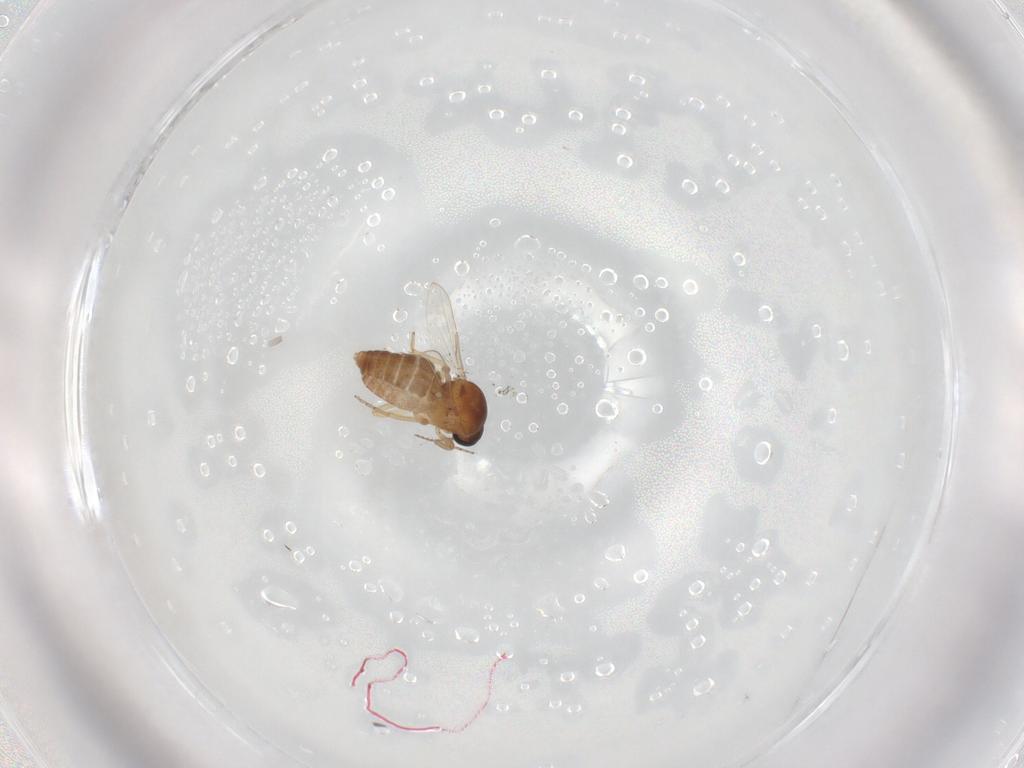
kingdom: Animalia
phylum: Arthropoda
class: Insecta
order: Diptera
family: Ceratopogonidae
